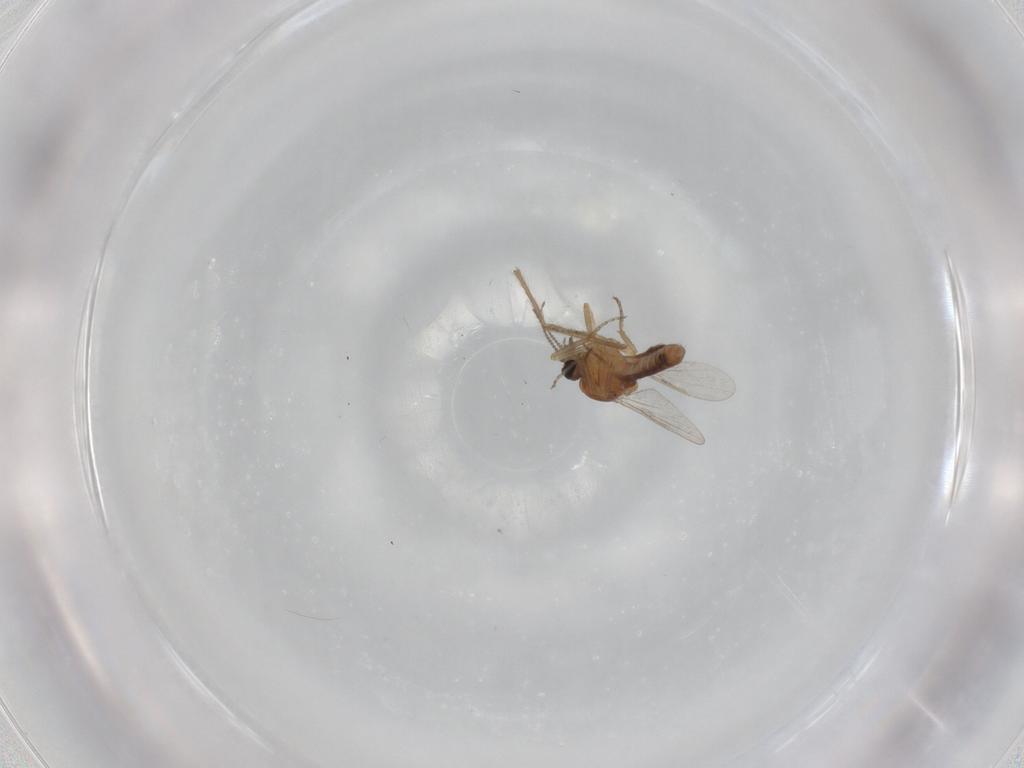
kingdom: Animalia
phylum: Arthropoda
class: Insecta
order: Diptera
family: Ceratopogonidae
